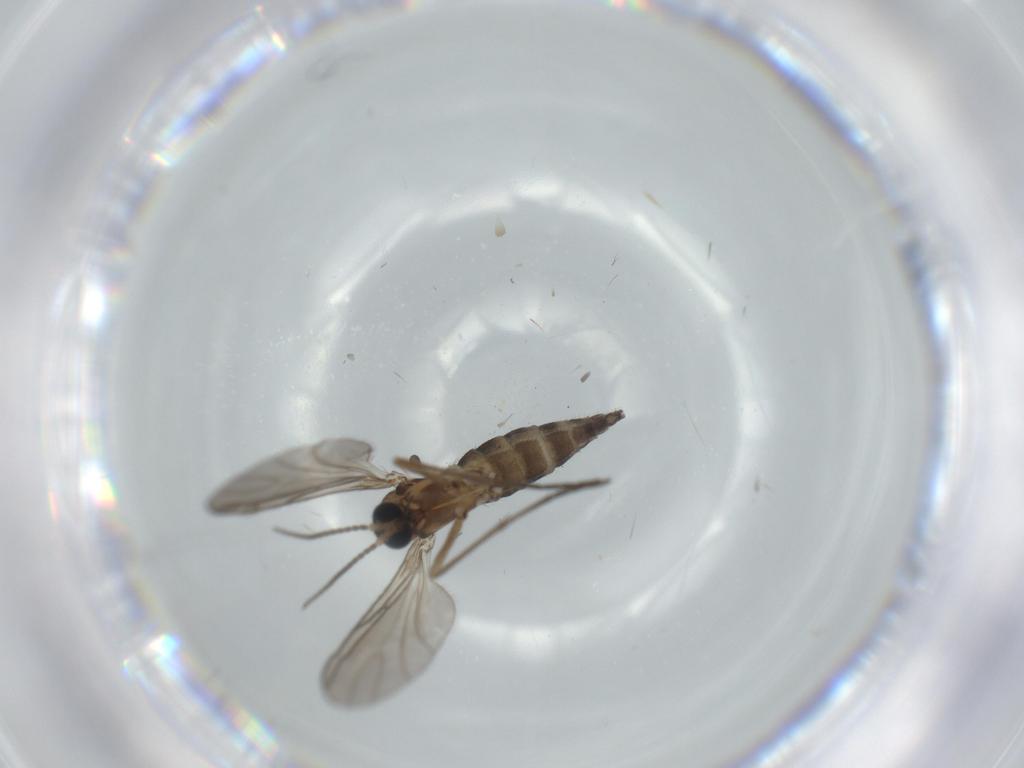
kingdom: Animalia
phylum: Arthropoda
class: Insecta
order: Diptera
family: Sciaridae
